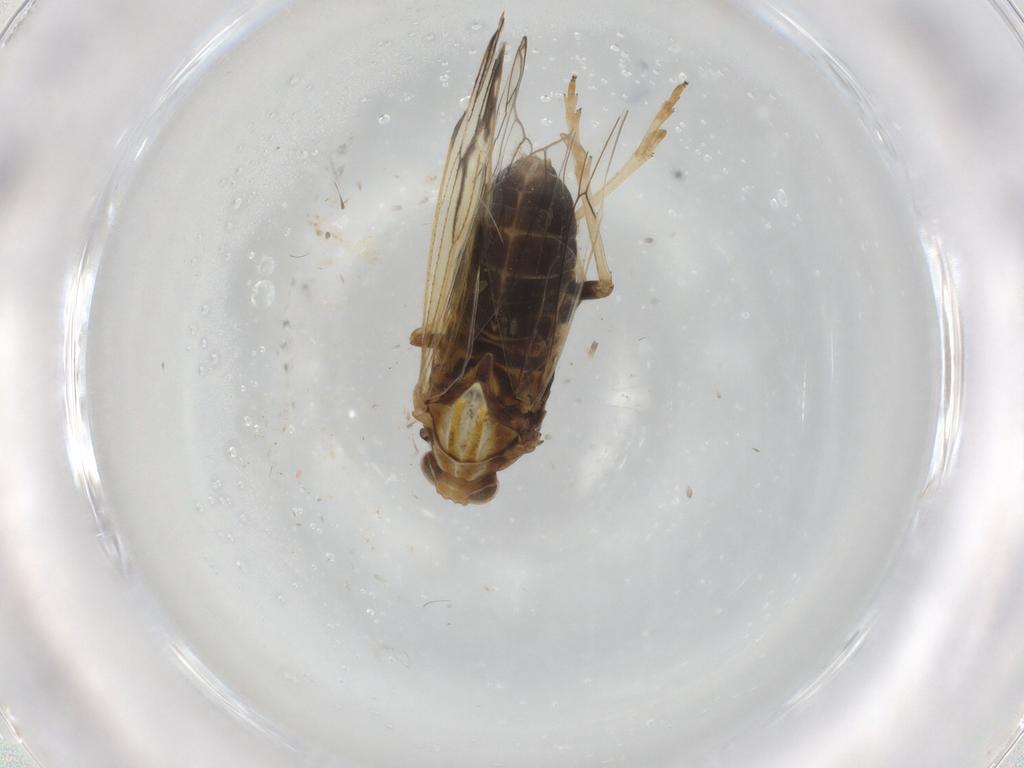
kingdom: Animalia
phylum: Arthropoda
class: Insecta
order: Hemiptera
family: Delphacidae
